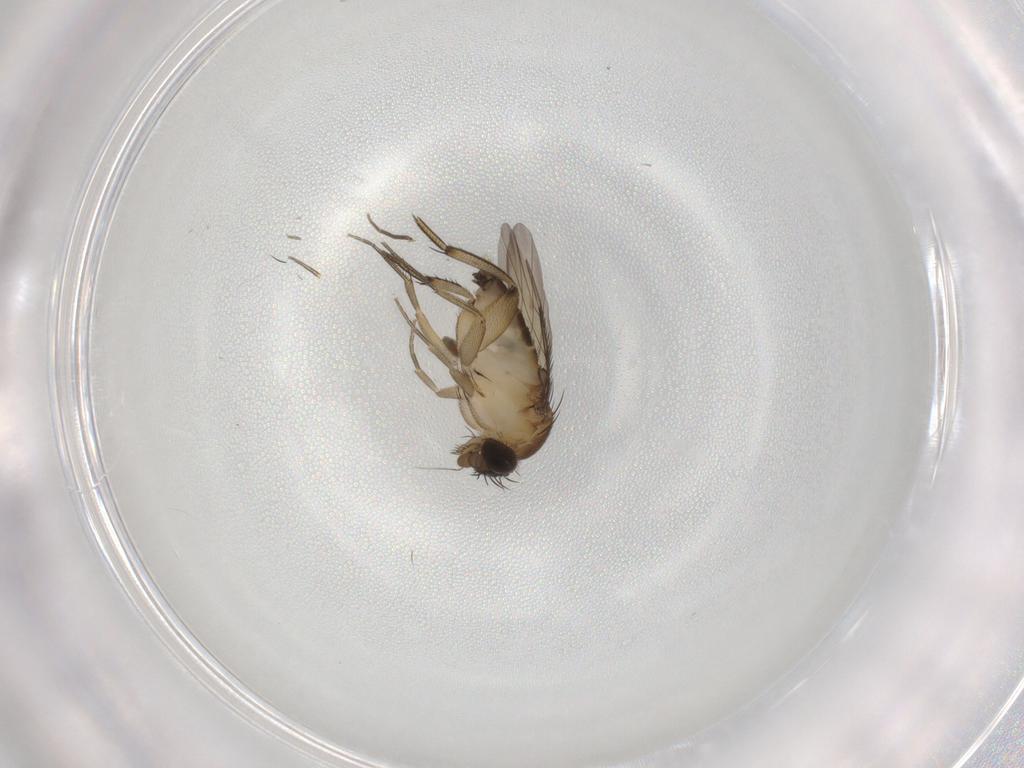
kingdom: Animalia
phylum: Arthropoda
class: Insecta
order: Diptera
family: Phoridae
